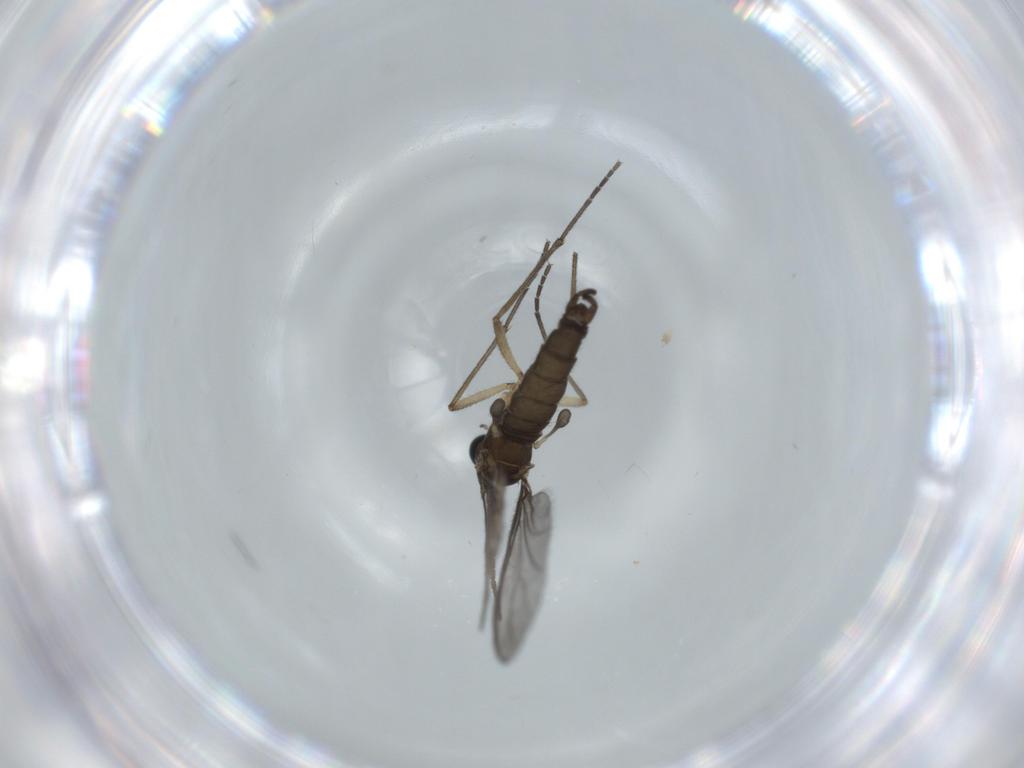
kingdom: Animalia
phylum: Arthropoda
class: Insecta
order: Diptera
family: Sciaridae
